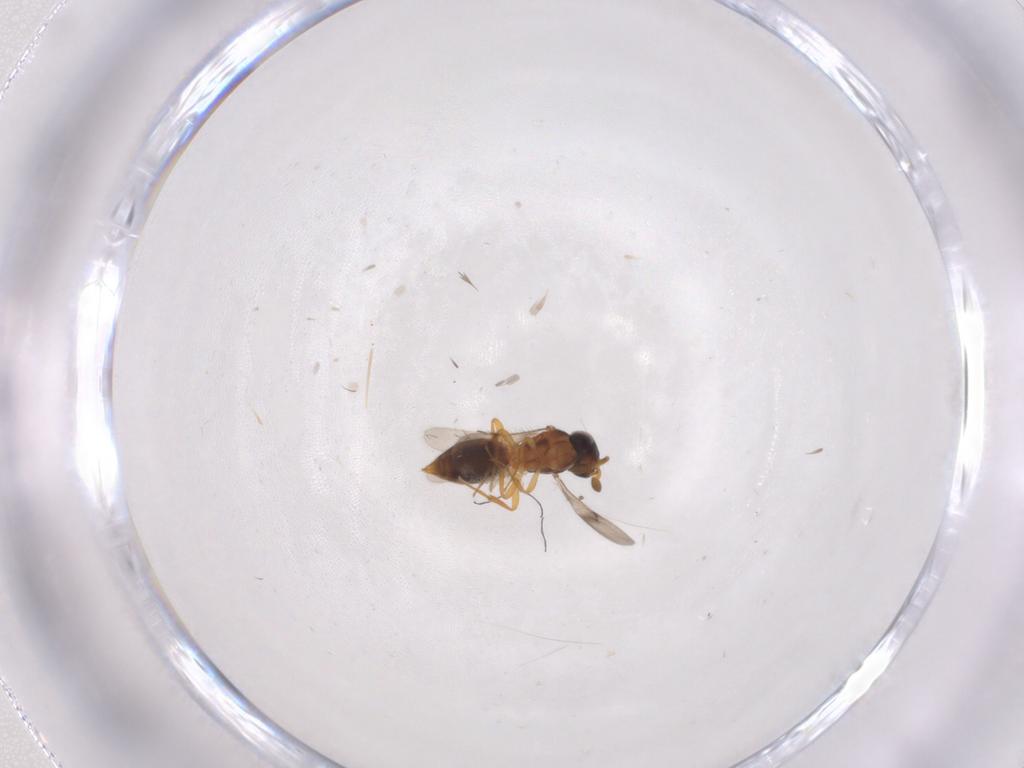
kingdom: Animalia
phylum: Arthropoda
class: Insecta
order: Hymenoptera
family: Scelionidae
